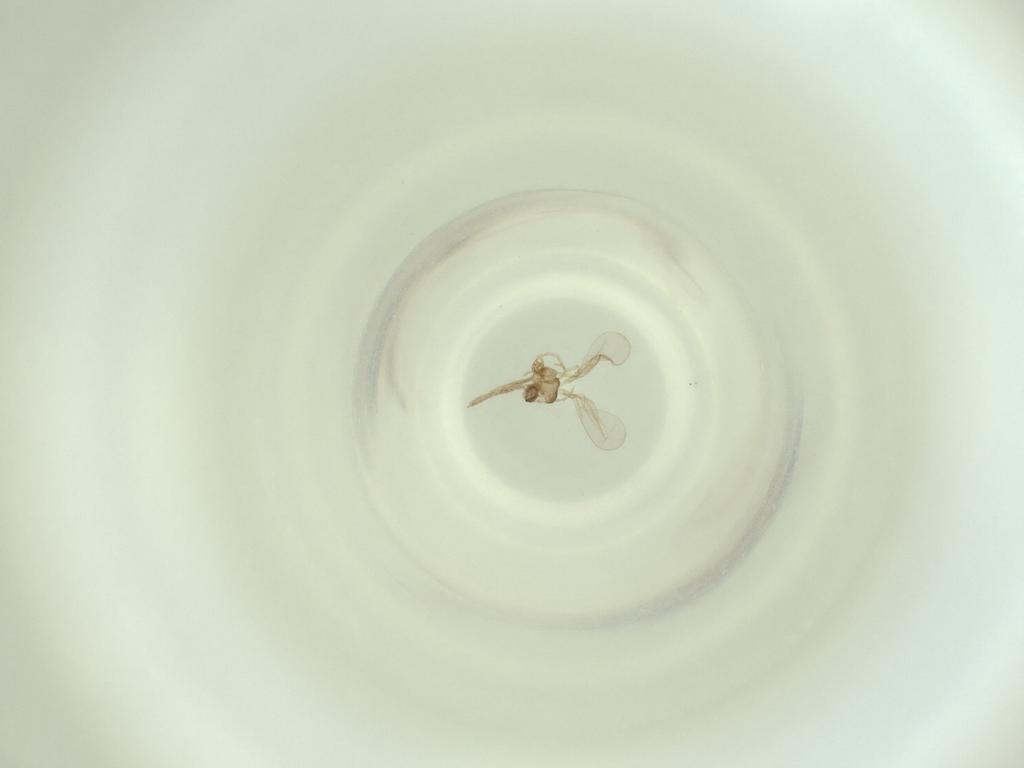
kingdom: Animalia
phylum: Arthropoda
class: Insecta
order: Diptera
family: Cecidomyiidae
